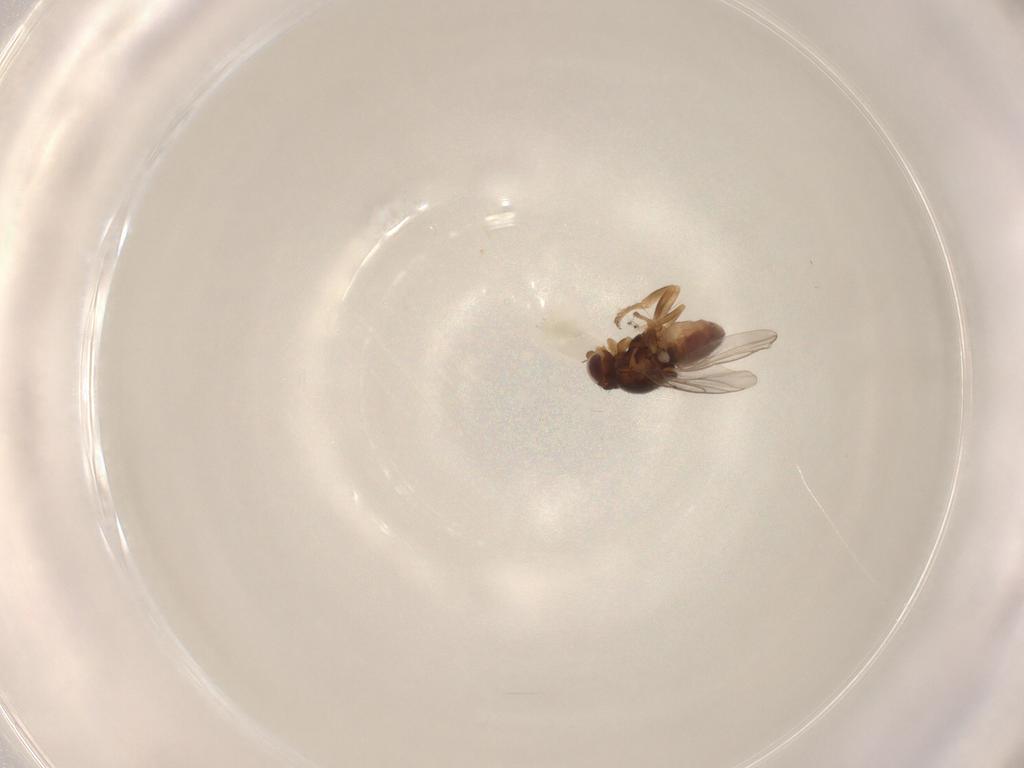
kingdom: Animalia
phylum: Arthropoda
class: Insecta
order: Diptera
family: Chloropidae
